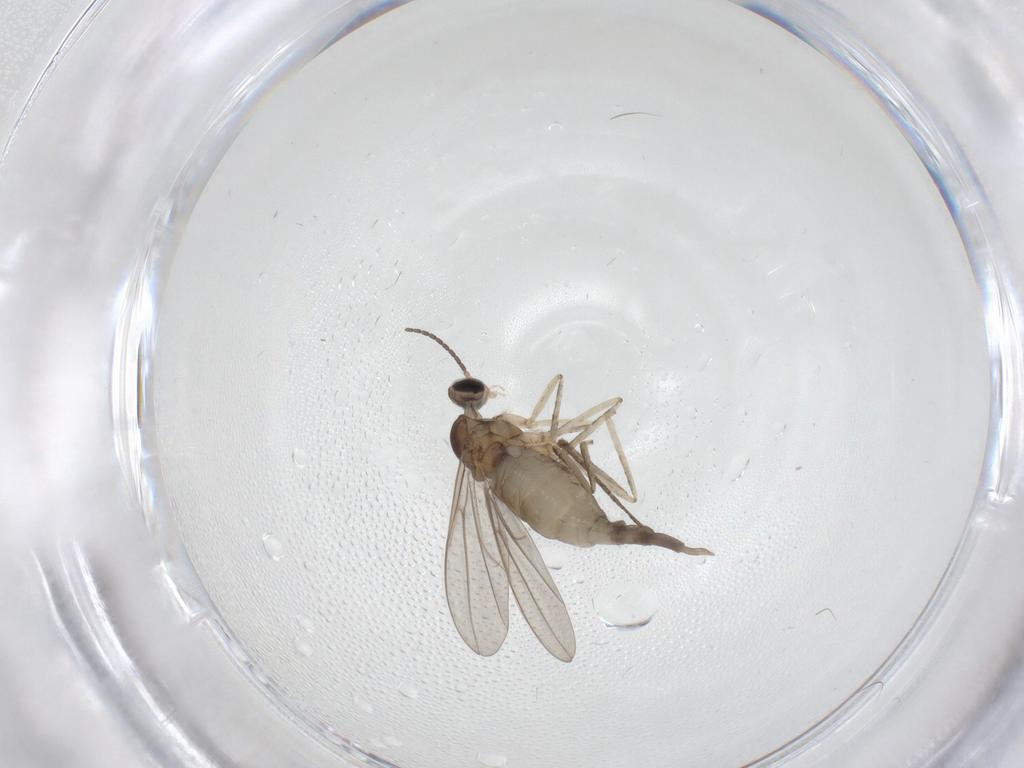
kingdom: Animalia
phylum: Arthropoda
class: Insecta
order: Diptera
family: Cecidomyiidae
